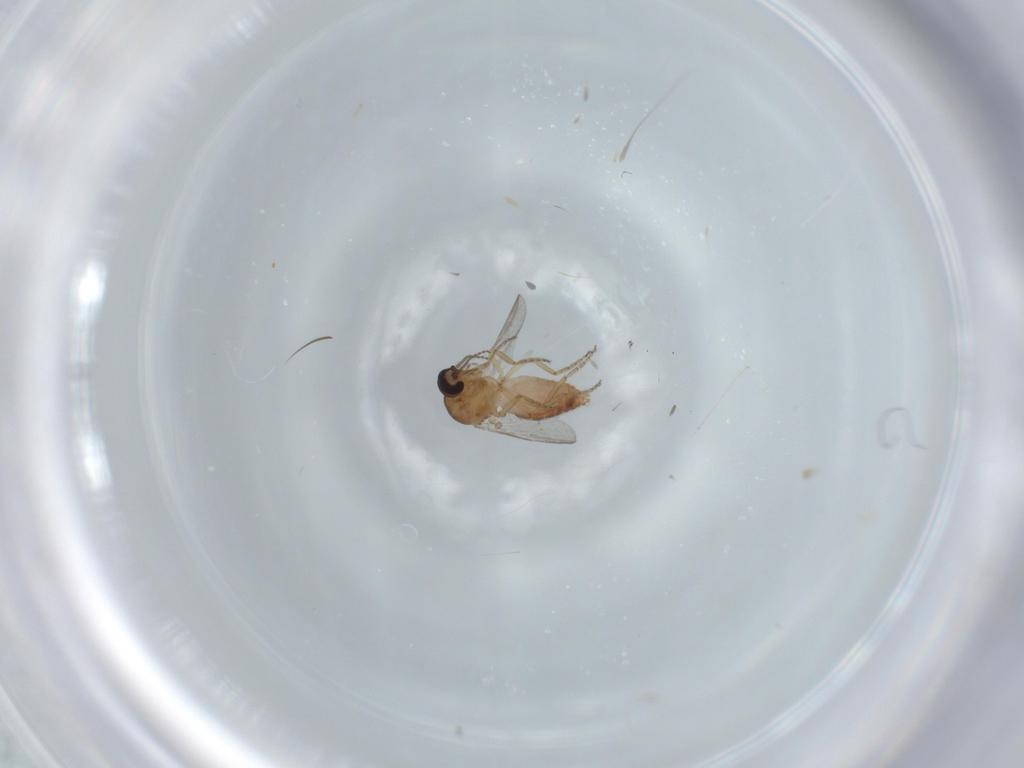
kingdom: Animalia
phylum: Arthropoda
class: Insecta
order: Diptera
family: Ceratopogonidae
